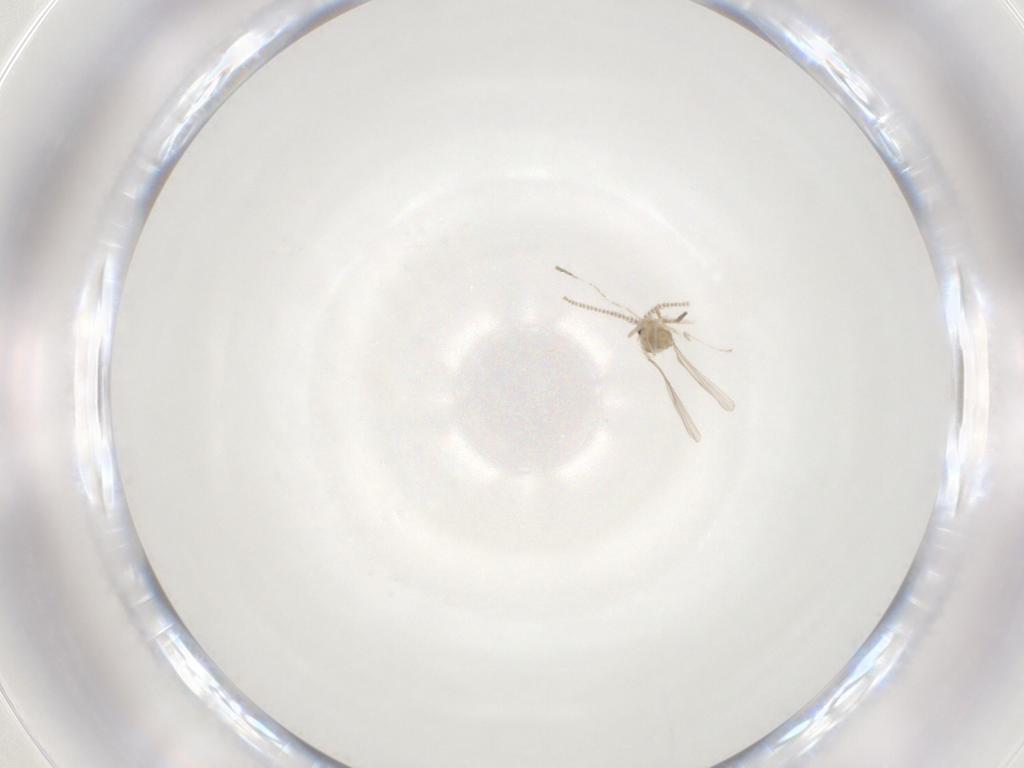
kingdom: Animalia
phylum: Arthropoda
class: Insecta
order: Diptera
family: Cecidomyiidae
